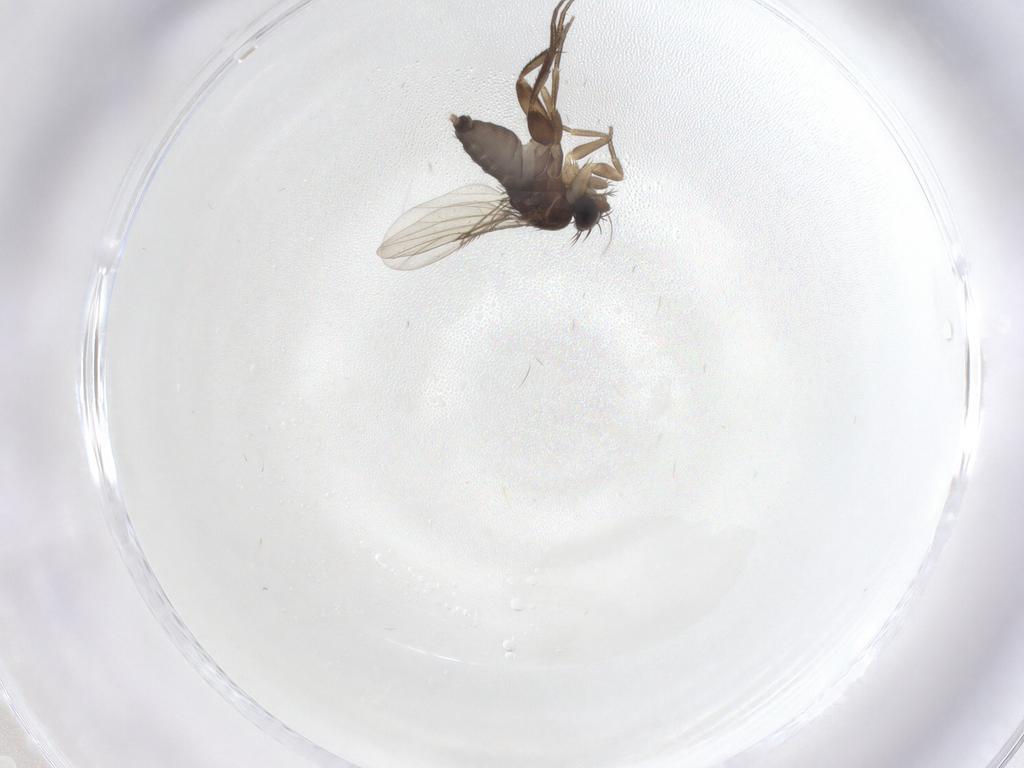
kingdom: Animalia
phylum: Arthropoda
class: Insecta
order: Diptera
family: Phoridae
